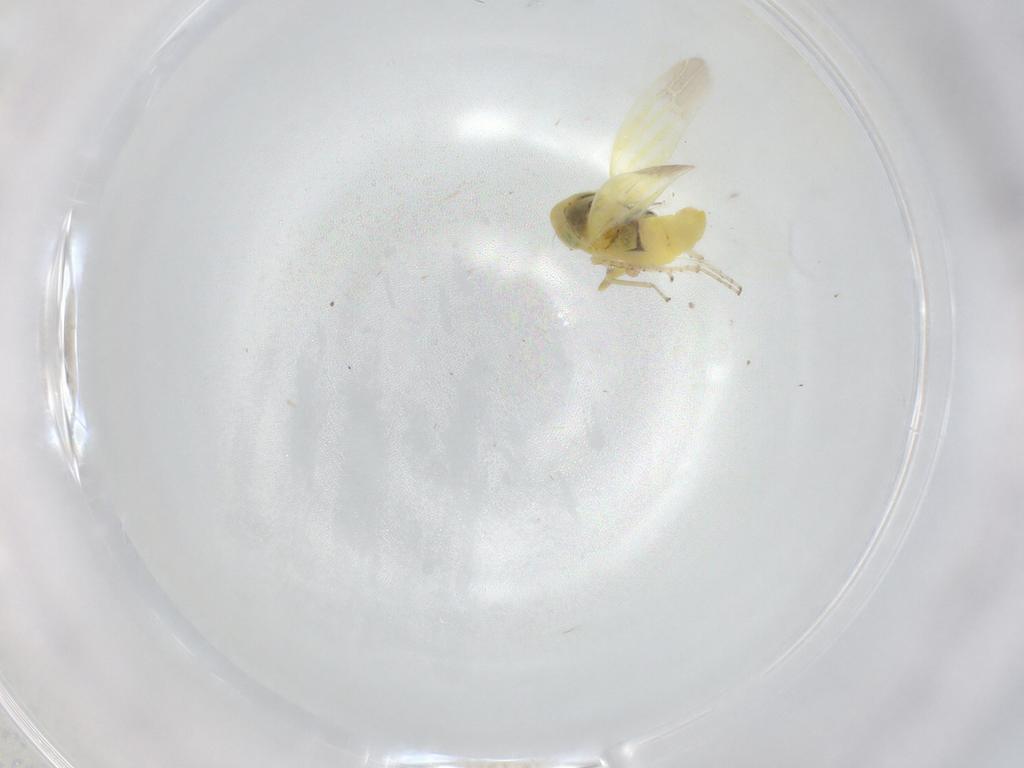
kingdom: Animalia
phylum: Arthropoda
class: Insecta
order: Hemiptera
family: Cicadellidae
